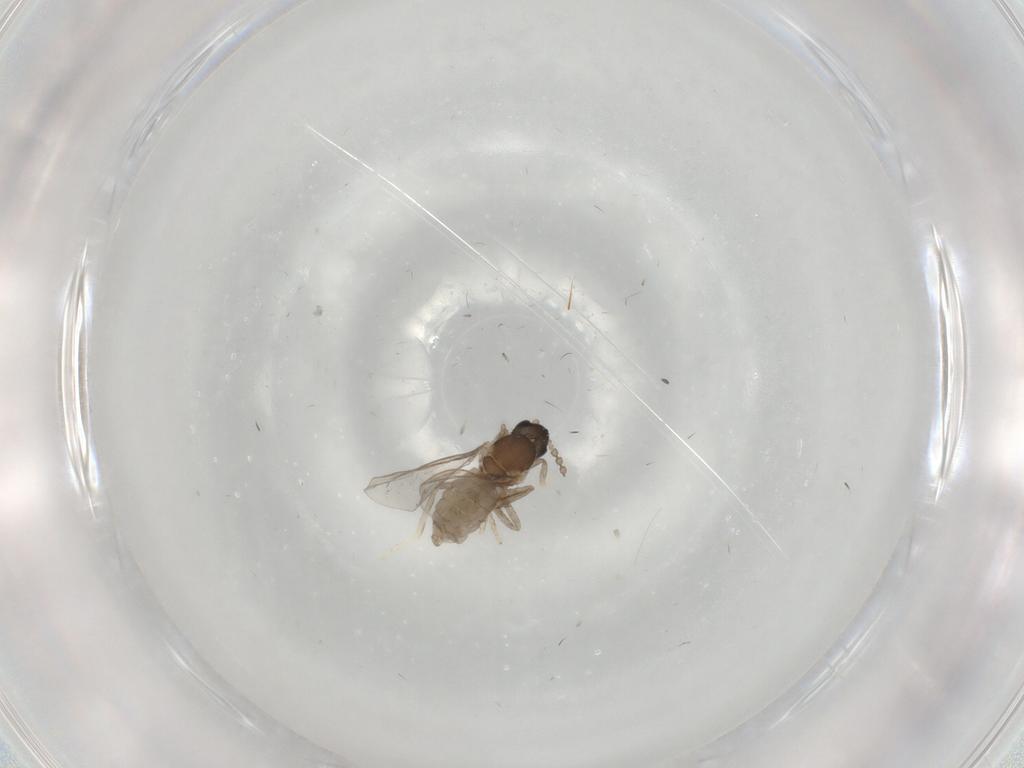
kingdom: Animalia
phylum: Arthropoda
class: Insecta
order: Diptera
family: Cecidomyiidae
